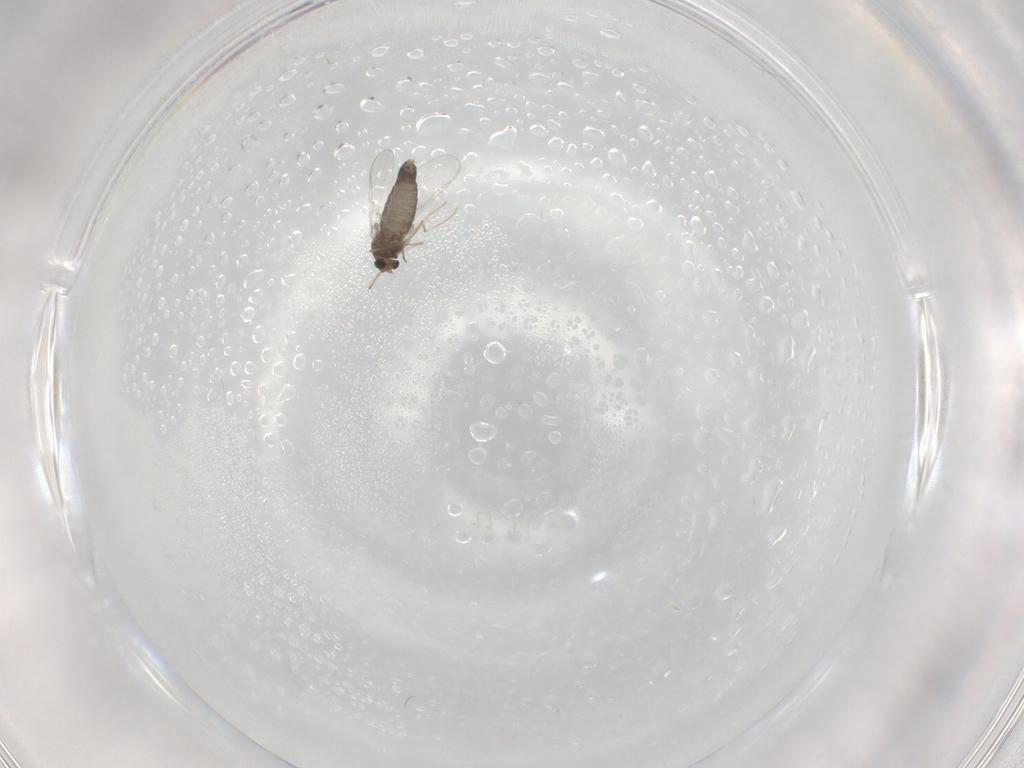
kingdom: Animalia
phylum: Arthropoda
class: Insecta
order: Diptera
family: Chironomidae
